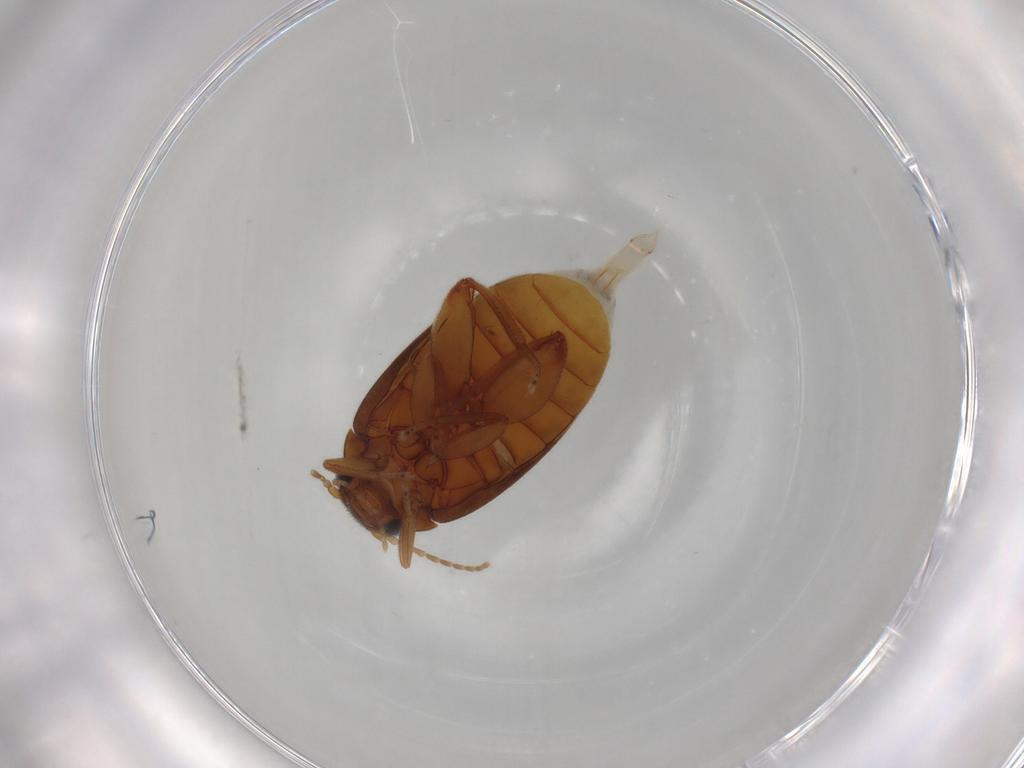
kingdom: Animalia
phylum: Arthropoda
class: Insecta
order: Coleoptera
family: Scirtidae
